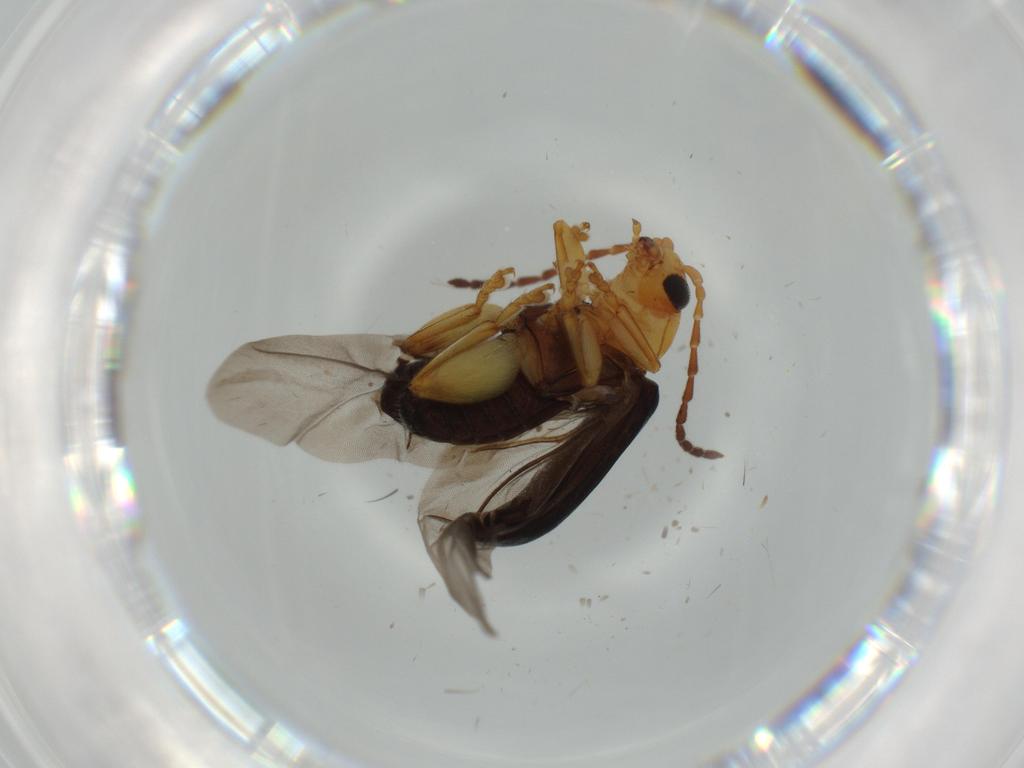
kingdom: Animalia
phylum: Arthropoda
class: Insecta
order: Coleoptera
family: Chrysomelidae
